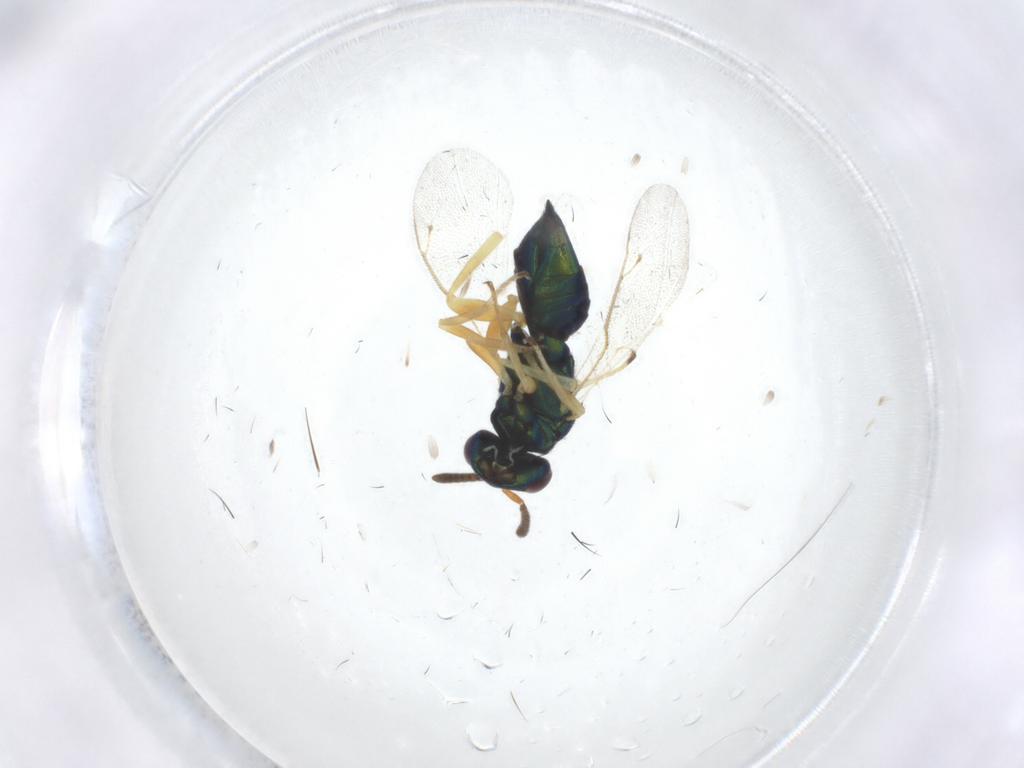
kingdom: Animalia
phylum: Arthropoda
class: Insecta
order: Hymenoptera
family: Pteromalidae
